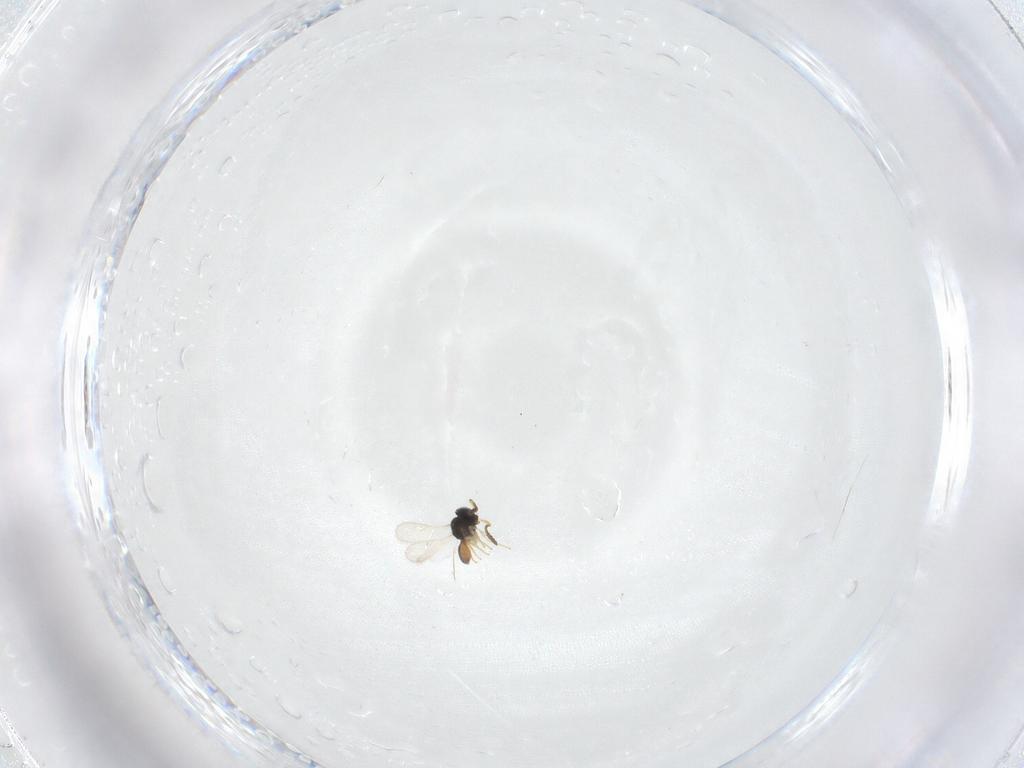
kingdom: Animalia
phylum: Arthropoda
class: Insecta
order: Hymenoptera
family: Scelionidae
